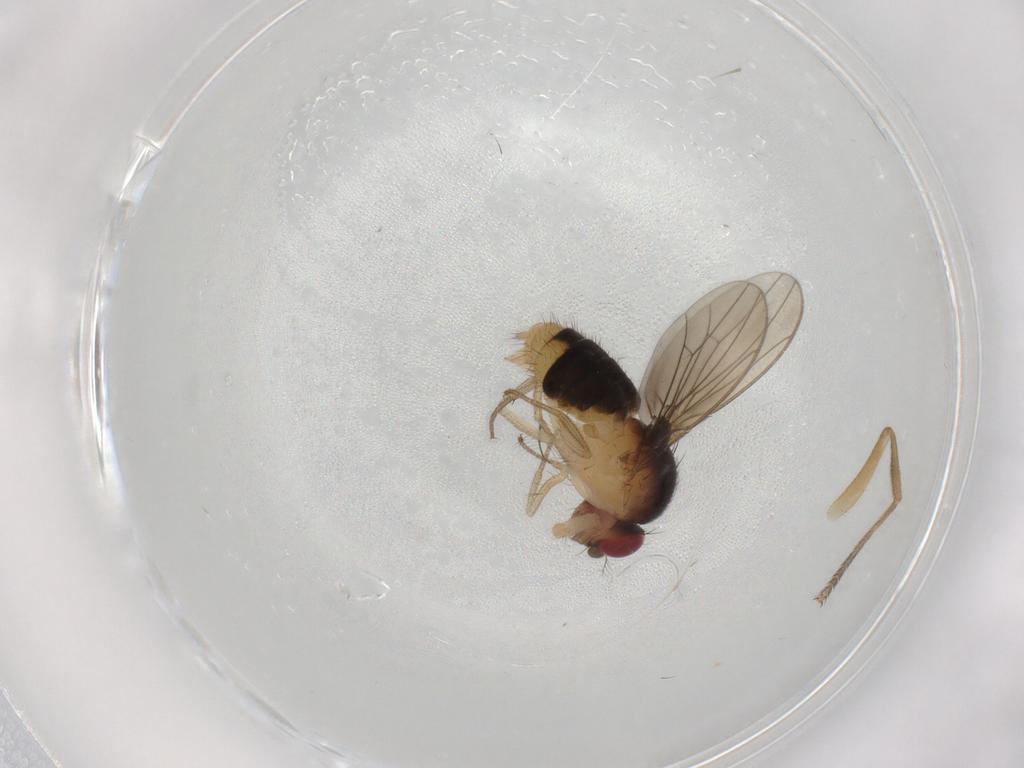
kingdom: Animalia
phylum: Arthropoda
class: Insecta
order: Diptera
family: Drosophilidae
